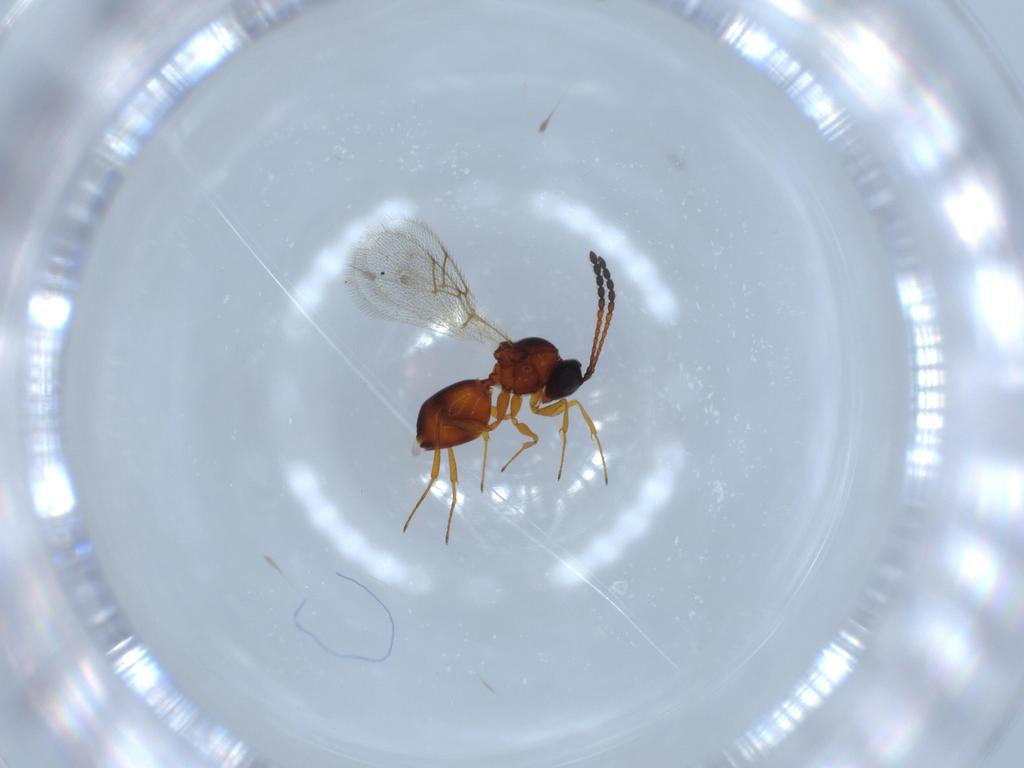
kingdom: Animalia
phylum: Arthropoda
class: Insecta
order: Hymenoptera
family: Figitidae
